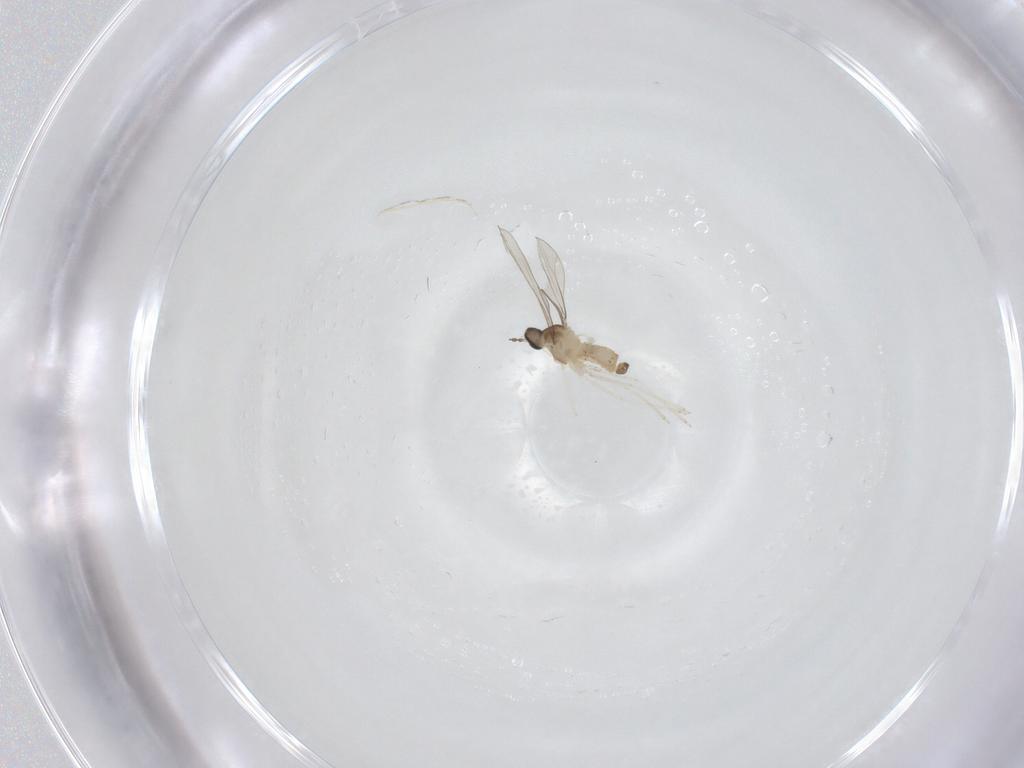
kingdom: Animalia
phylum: Arthropoda
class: Insecta
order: Diptera
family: Cecidomyiidae
